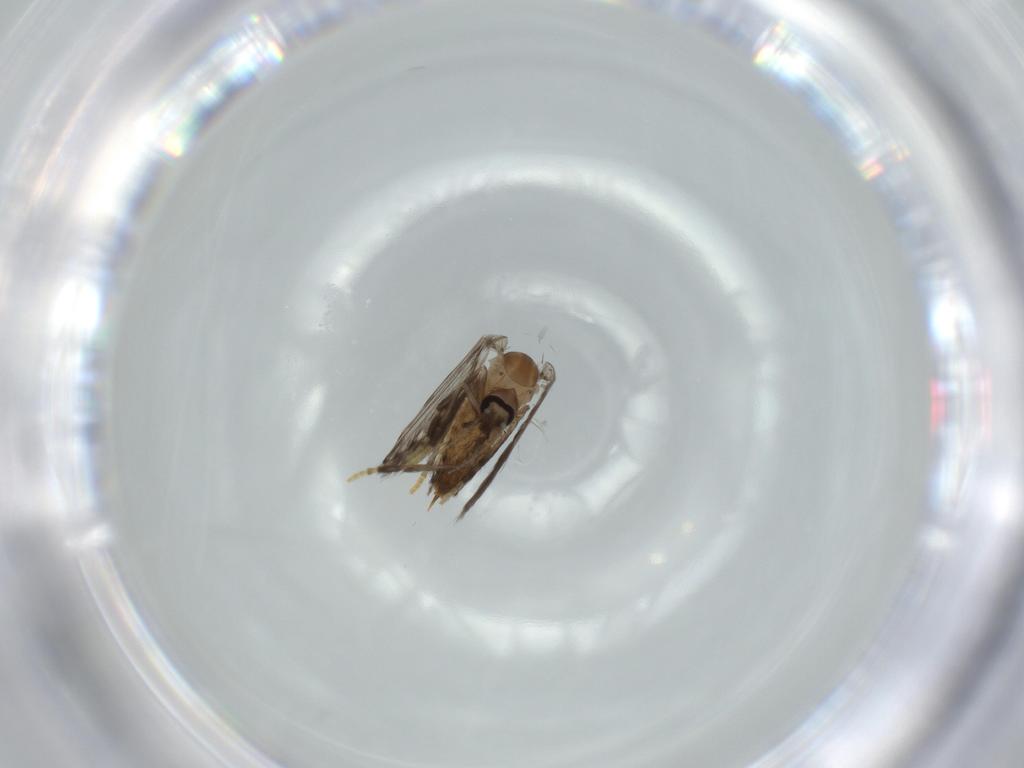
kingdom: Animalia
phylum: Arthropoda
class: Insecta
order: Diptera
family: Psychodidae
